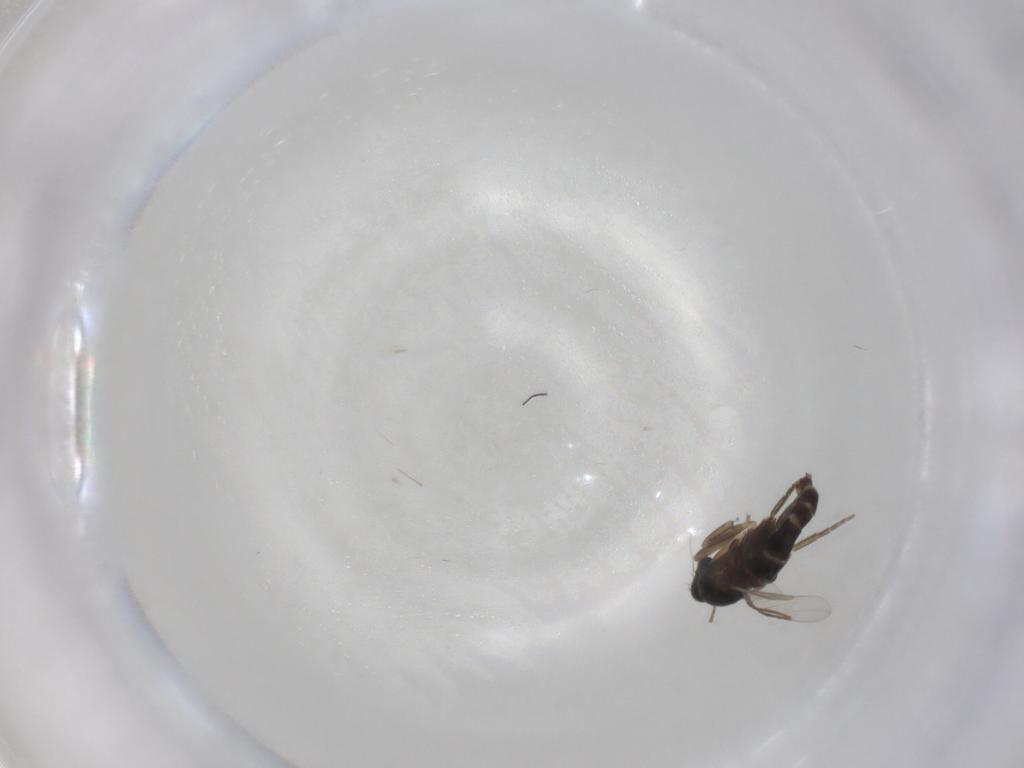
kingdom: Animalia
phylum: Arthropoda
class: Insecta
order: Diptera
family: Phoridae
